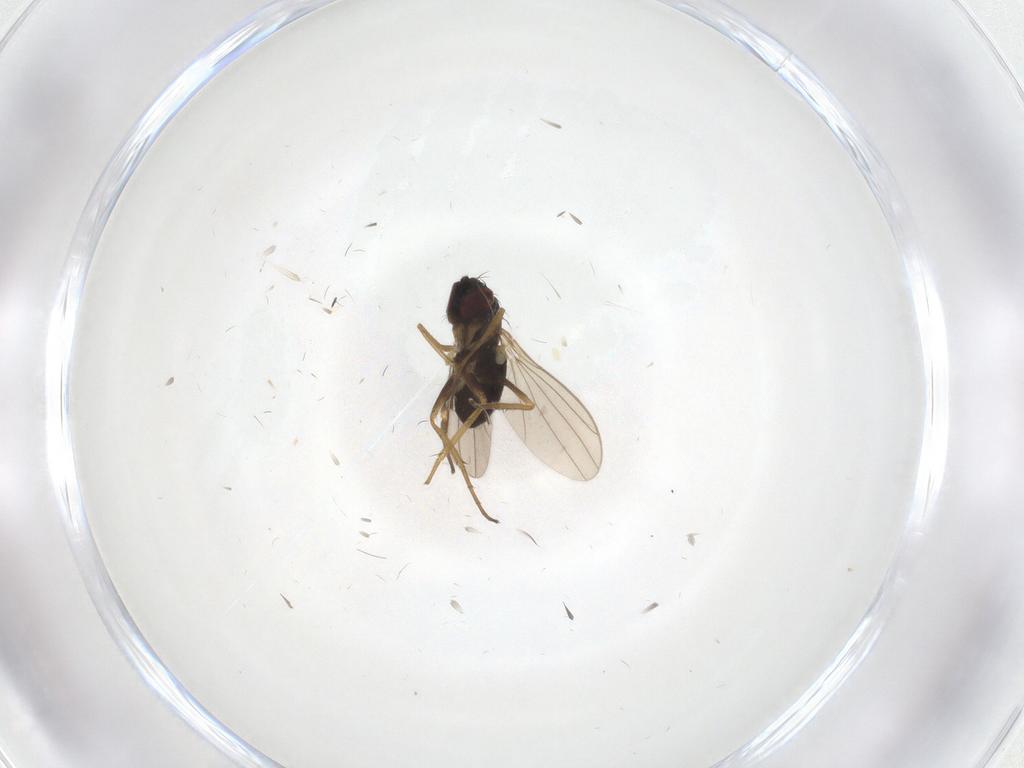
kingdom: Animalia
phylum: Arthropoda
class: Insecta
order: Diptera
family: Dolichopodidae
